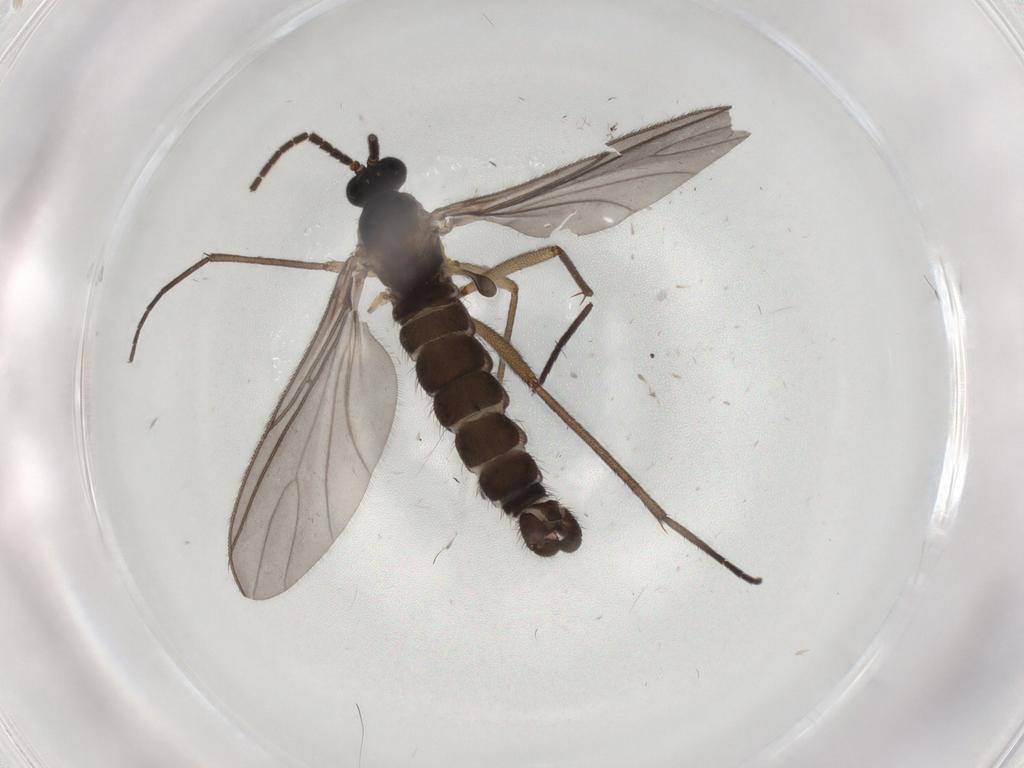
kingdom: Animalia
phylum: Arthropoda
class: Insecta
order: Diptera
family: Sciaridae
